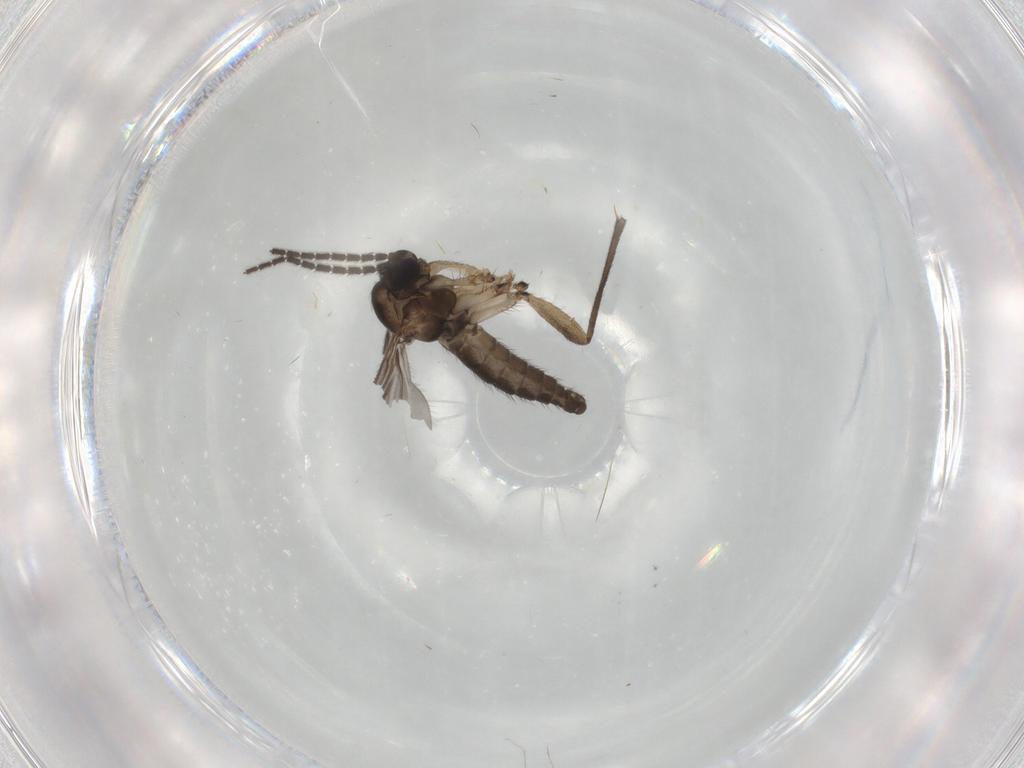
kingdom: Animalia
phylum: Arthropoda
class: Insecta
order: Diptera
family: Sciaridae
